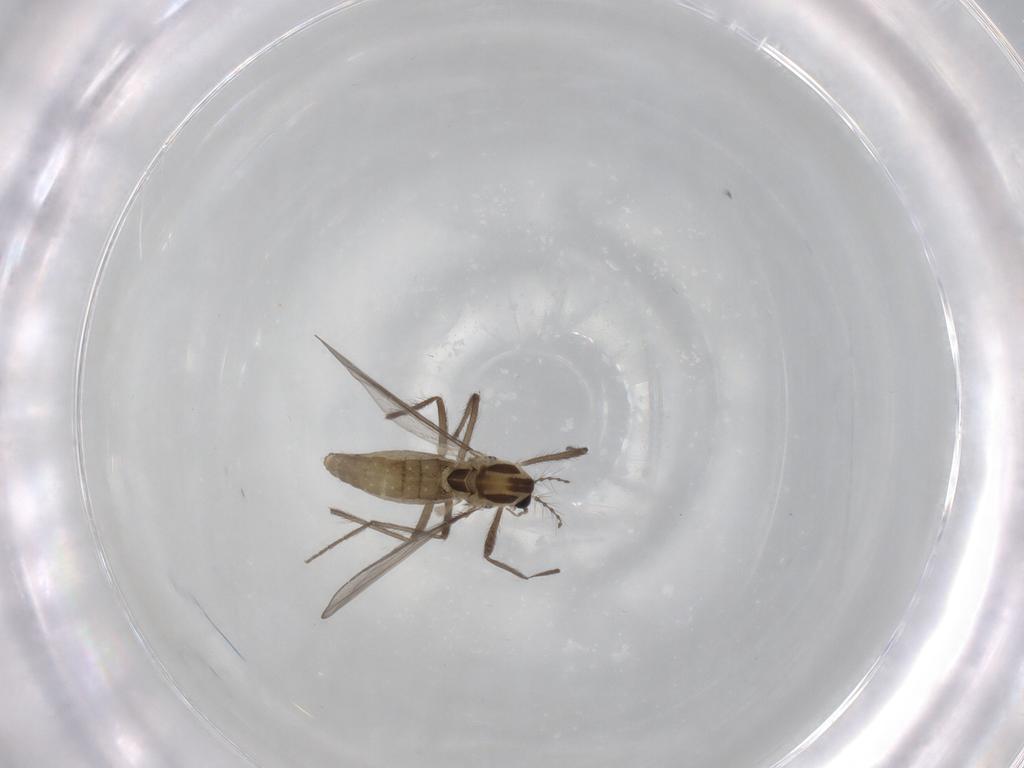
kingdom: Animalia
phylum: Arthropoda
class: Insecta
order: Diptera
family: Chironomidae
